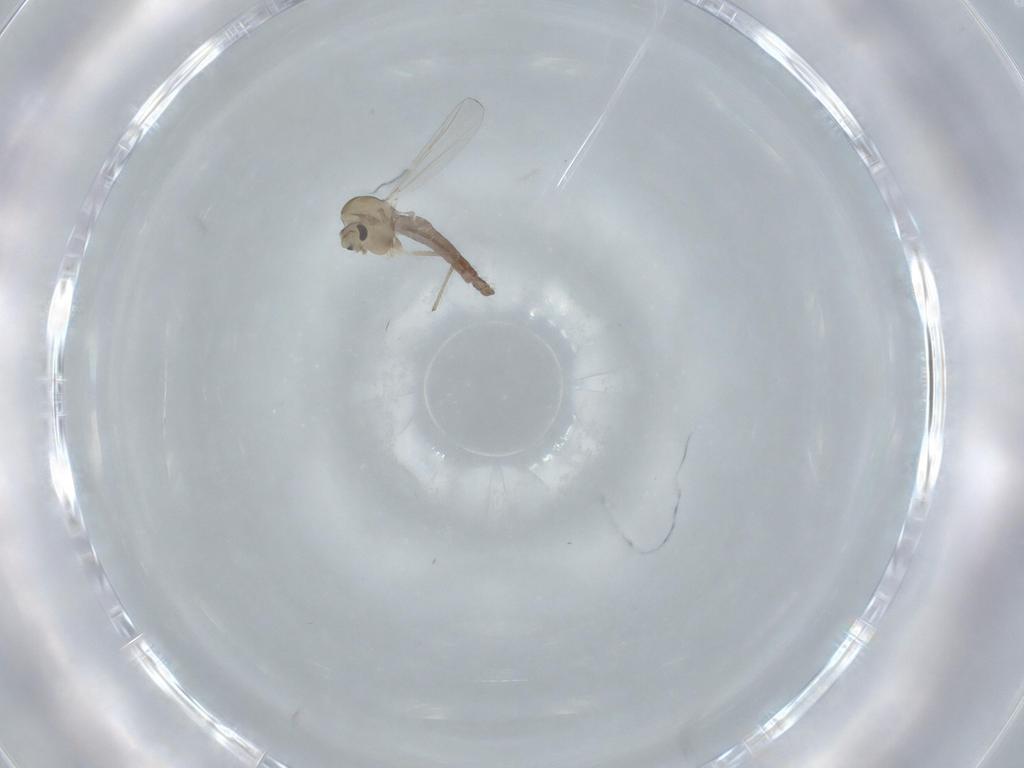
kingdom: Animalia
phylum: Arthropoda
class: Insecta
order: Diptera
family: Chironomidae
